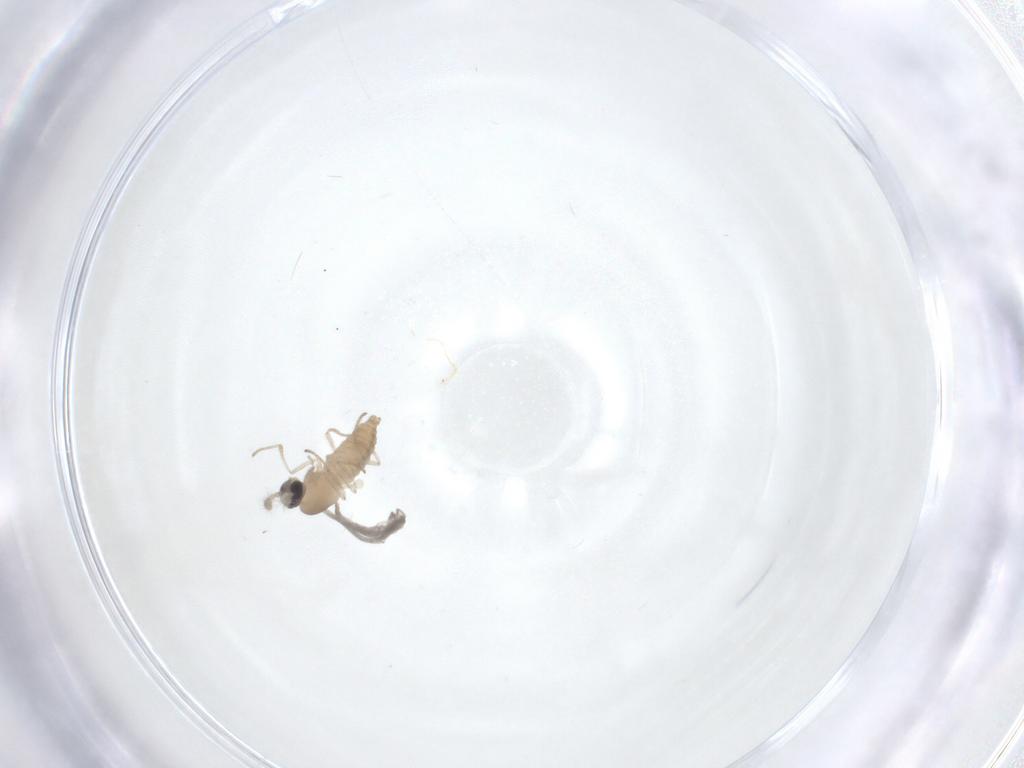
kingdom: Animalia
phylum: Arthropoda
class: Insecta
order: Diptera
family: Cecidomyiidae
